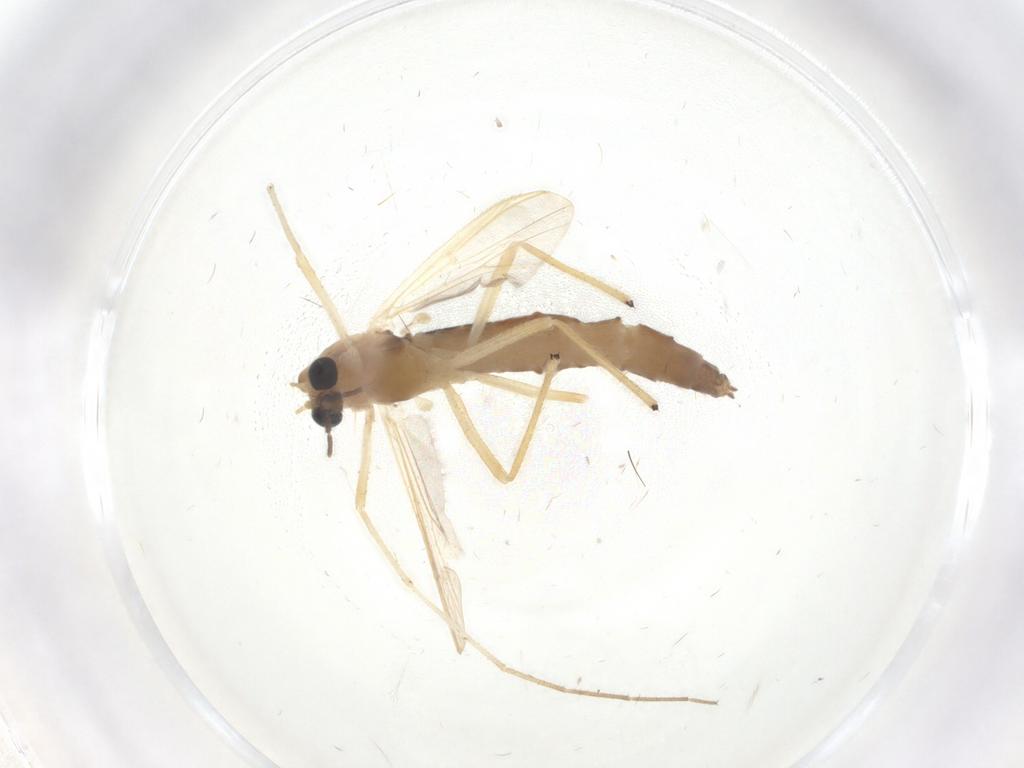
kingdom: Animalia
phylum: Arthropoda
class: Insecta
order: Diptera
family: Chironomidae
